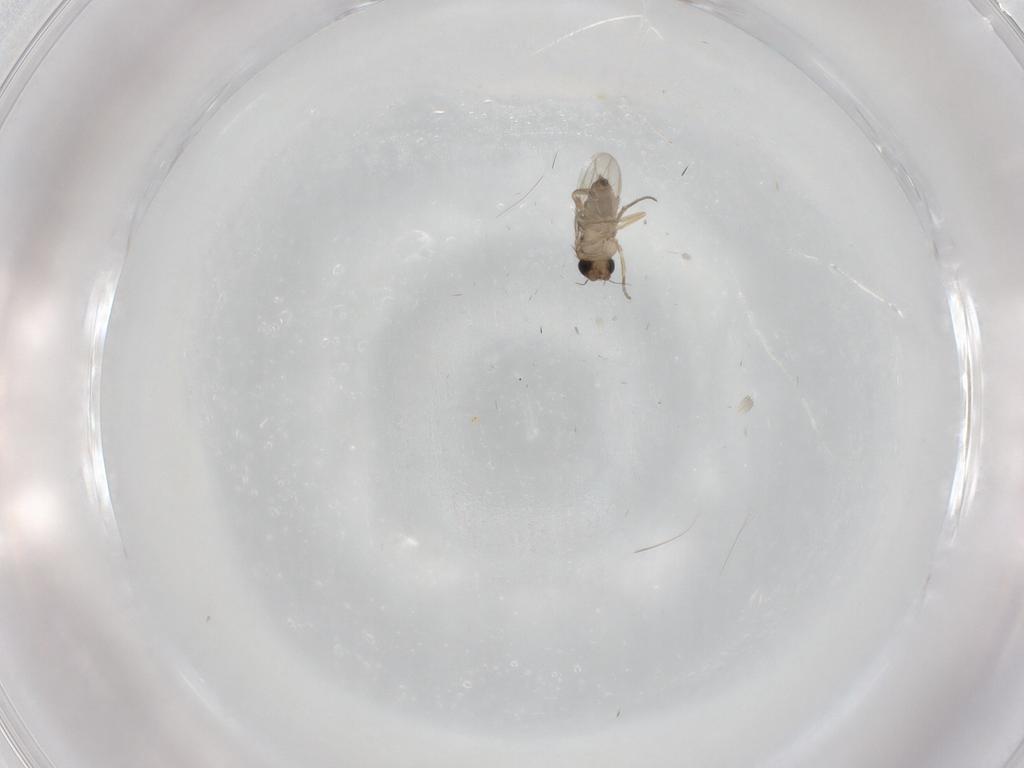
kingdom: Animalia
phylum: Arthropoda
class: Insecta
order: Diptera
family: Phoridae
